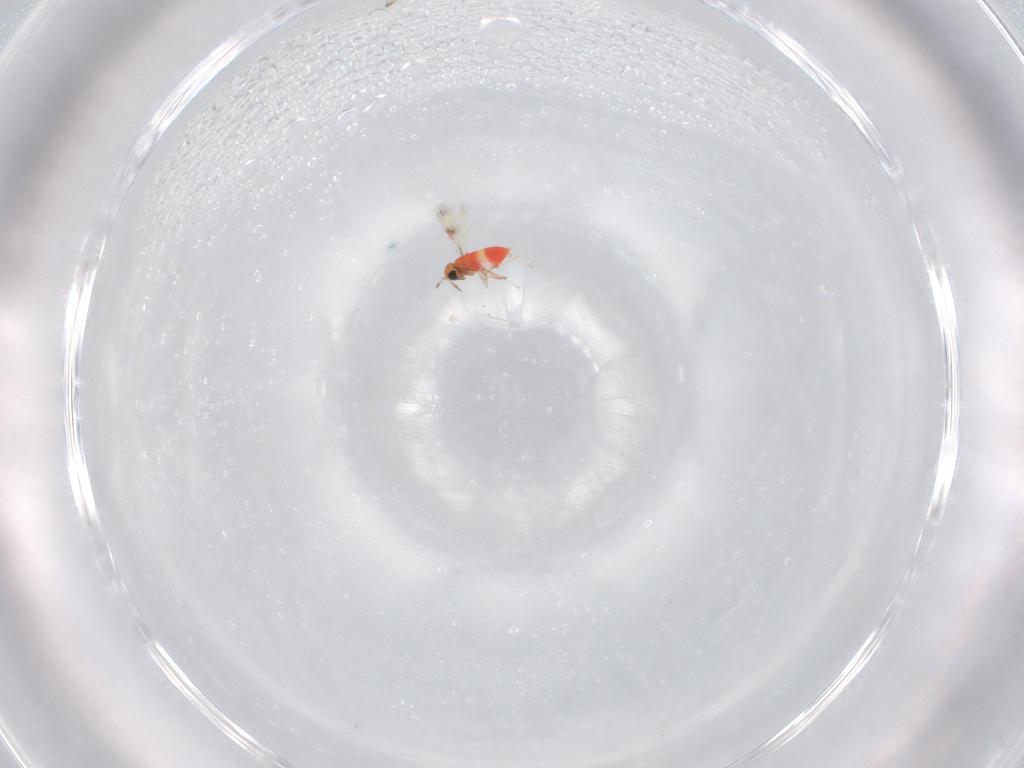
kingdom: Animalia
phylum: Arthropoda
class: Insecta
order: Hymenoptera
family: Trichogrammatidae
